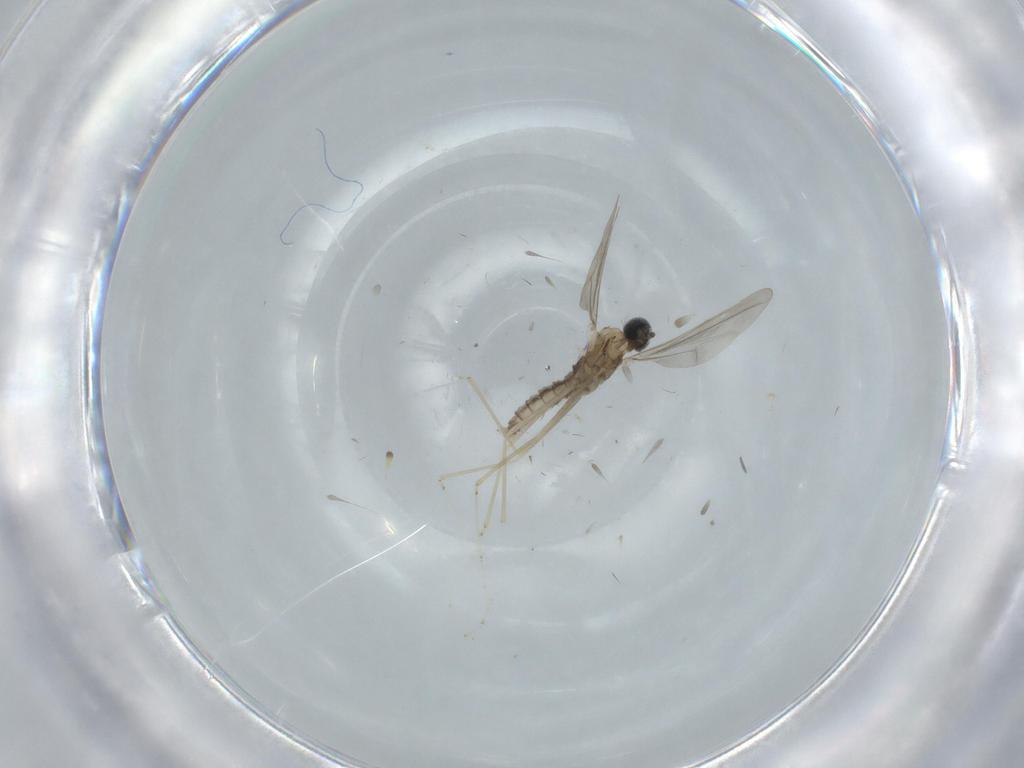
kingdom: Animalia
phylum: Arthropoda
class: Insecta
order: Diptera
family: Cecidomyiidae
